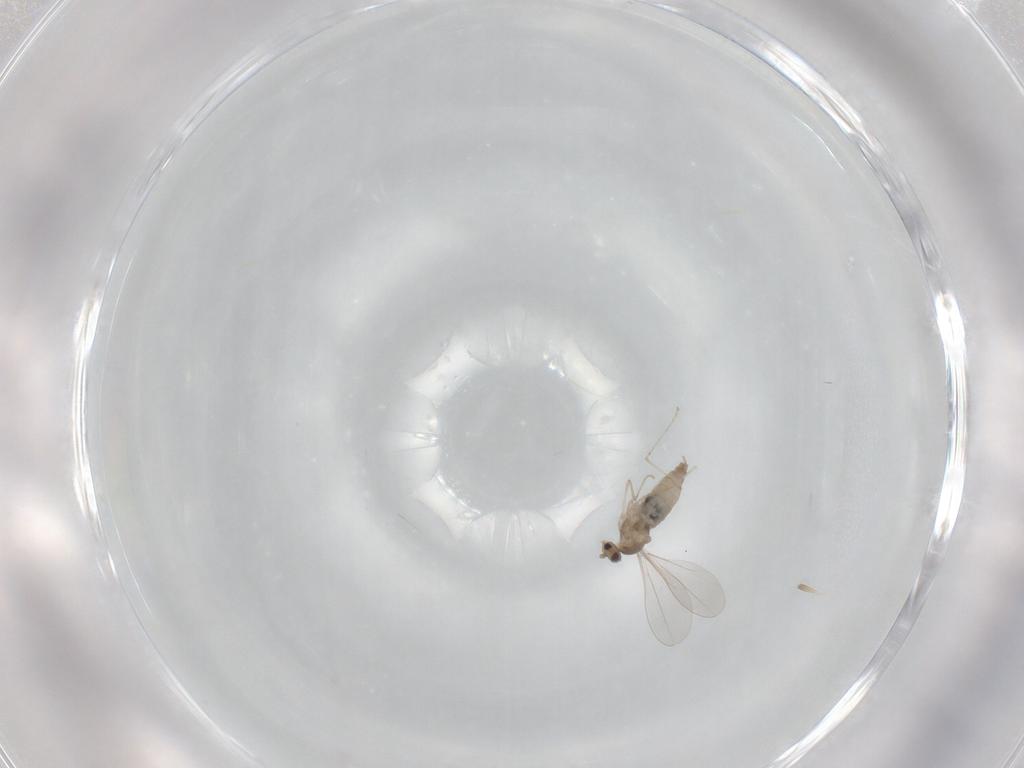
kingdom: Animalia
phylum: Arthropoda
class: Insecta
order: Diptera
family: Cecidomyiidae
